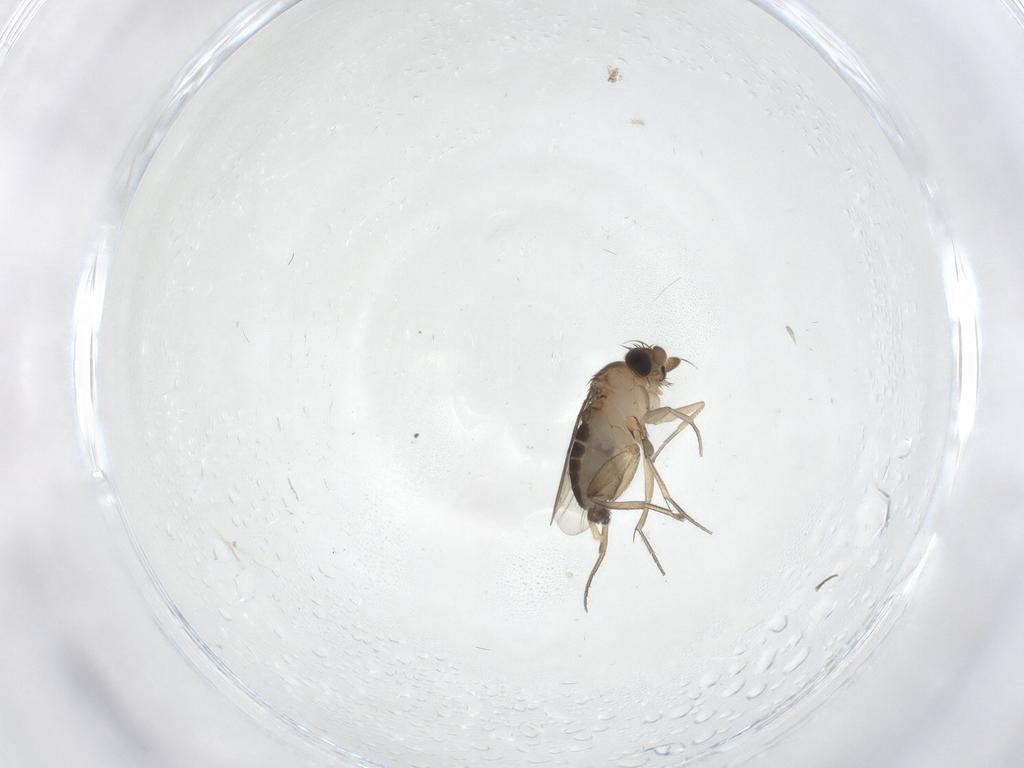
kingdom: Animalia
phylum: Arthropoda
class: Insecta
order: Diptera
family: Phoridae
